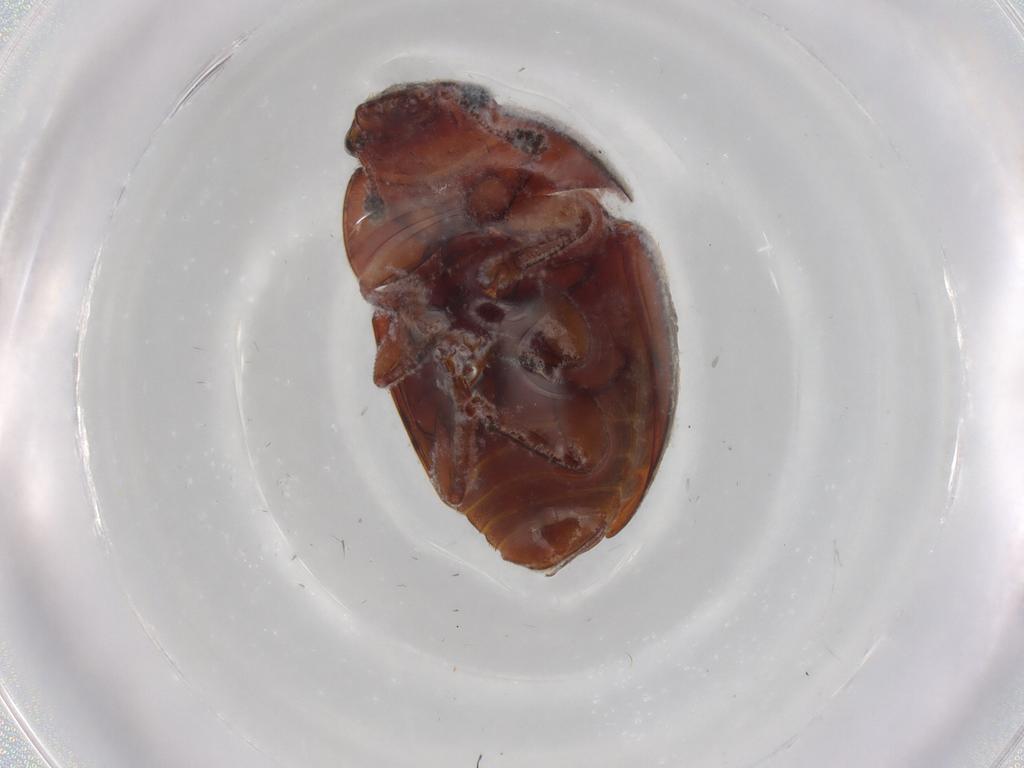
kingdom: Animalia
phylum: Arthropoda
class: Insecta
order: Coleoptera
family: Nitidulidae
